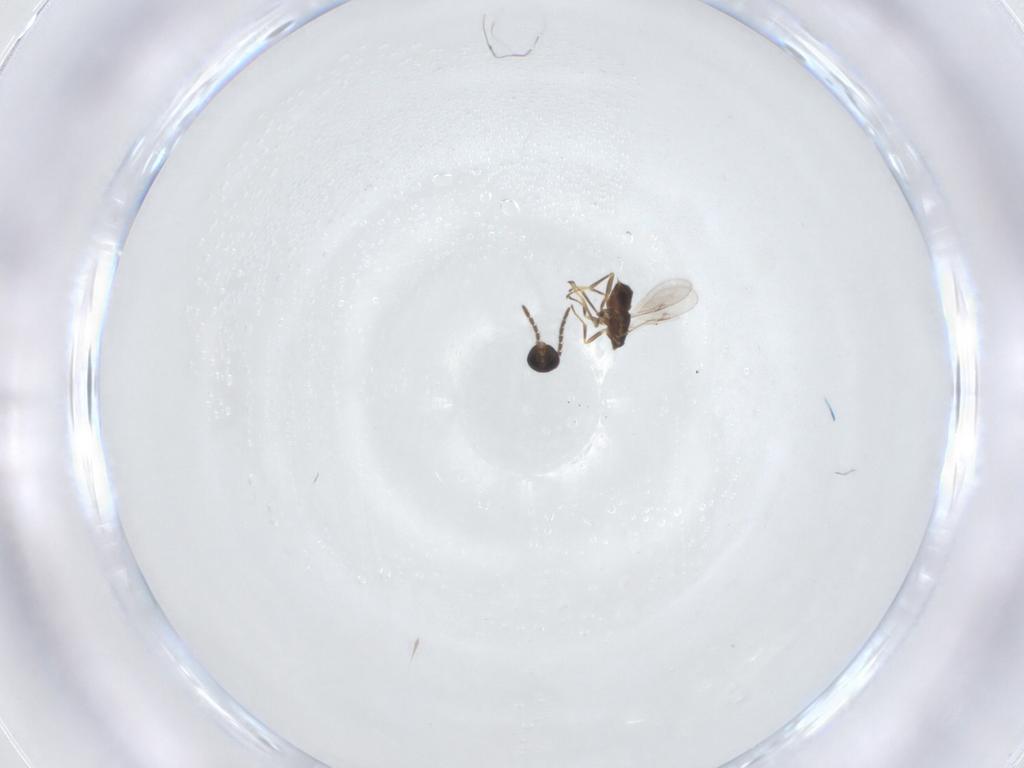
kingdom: Animalia
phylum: Arthropoda
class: Insecta
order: Hymenoptera
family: Encyrtidae
